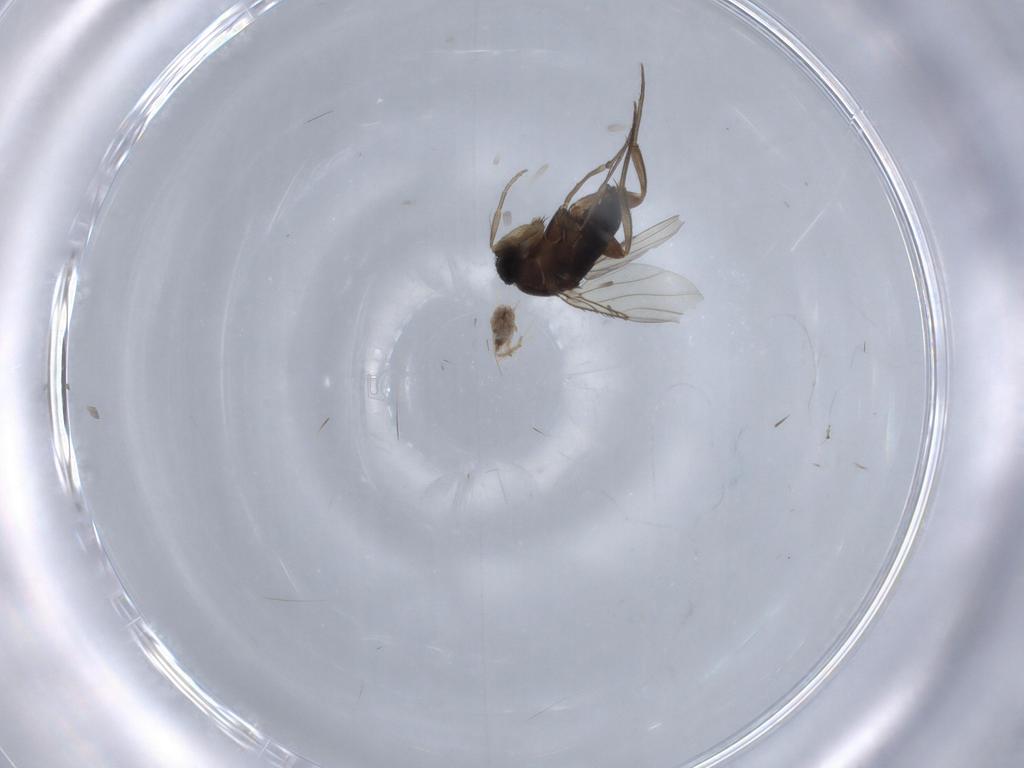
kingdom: Animalia
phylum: Arthropoda
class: Insecta
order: Diptera
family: Phoridae
